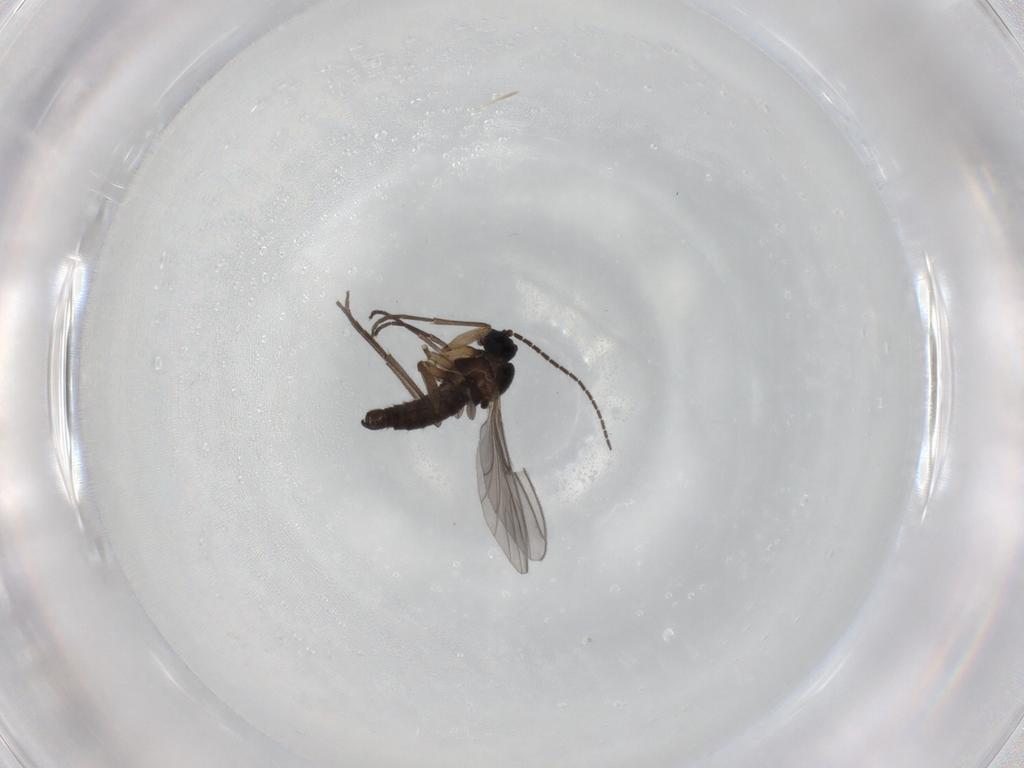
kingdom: Animalia
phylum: Arthropoda
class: Insecta
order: Diptera
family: Sciaridae
